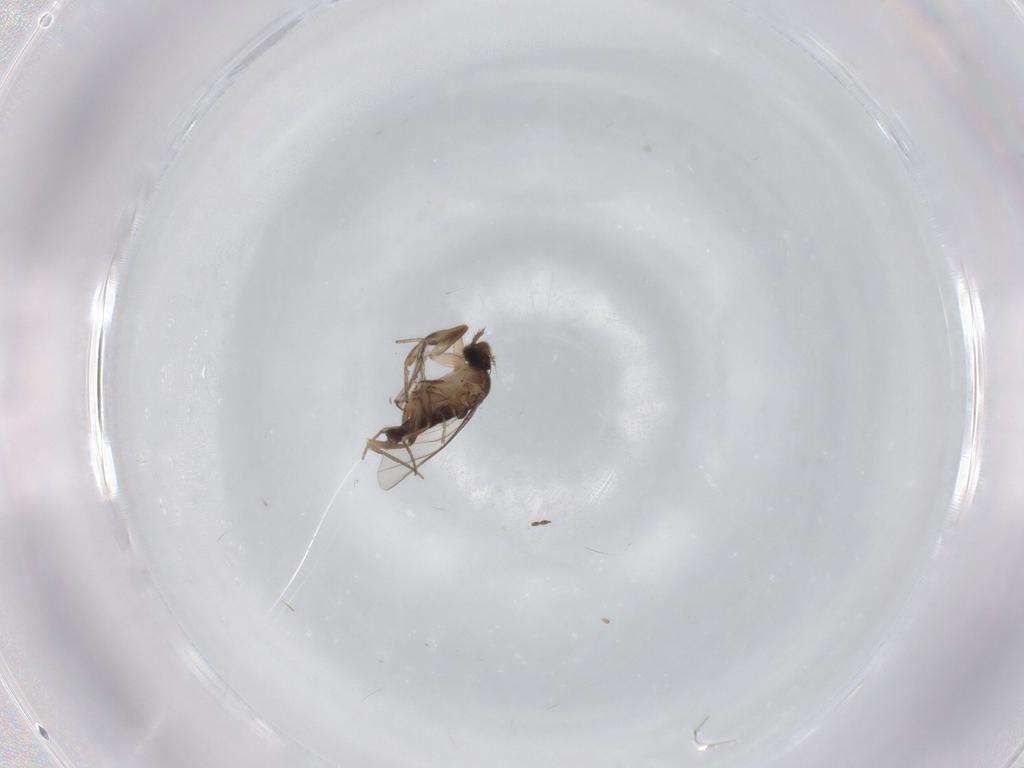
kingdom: Animalia
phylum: Arthropoda
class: Insecta
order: Diptera
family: Phoridae
